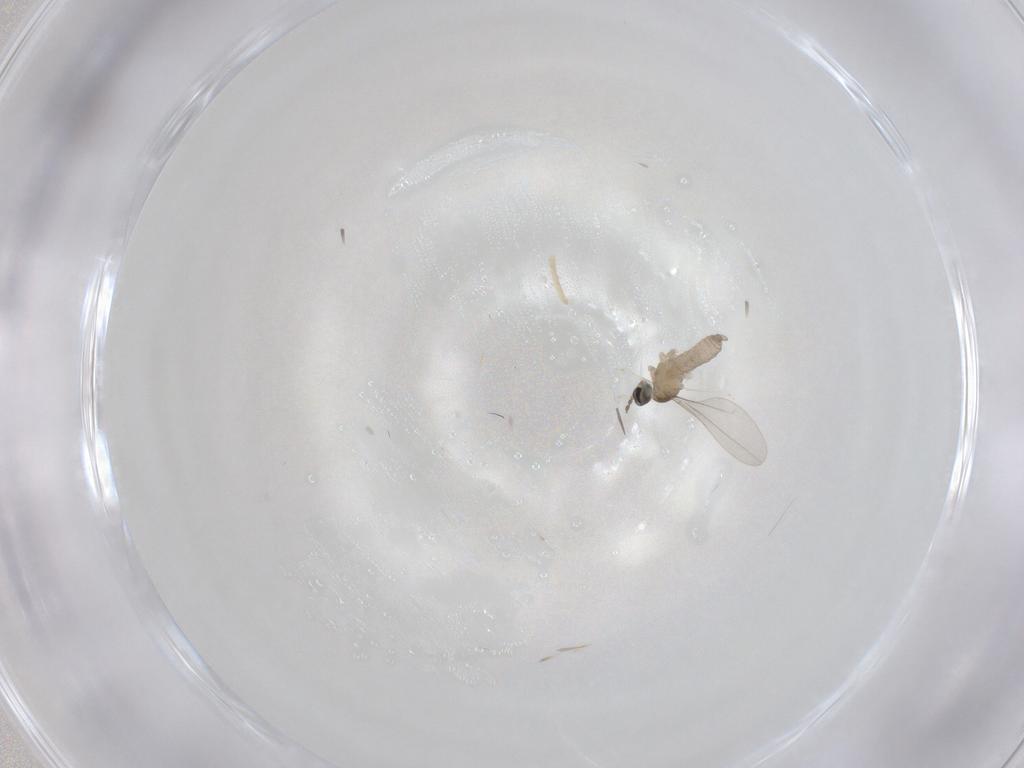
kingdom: Animalia
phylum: Arthropoda
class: Insecta
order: Diptera
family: Cecidomyiidae
